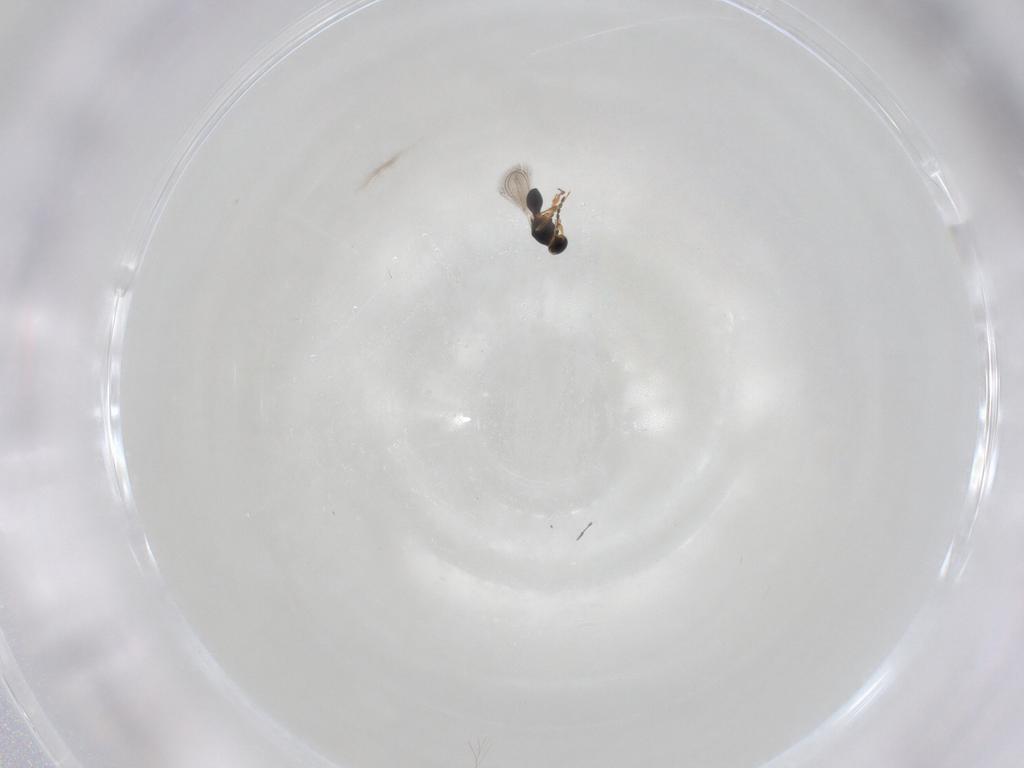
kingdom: Animalia
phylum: Arthropoda
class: Insecta
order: Hymenoptera
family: Platygastridae
